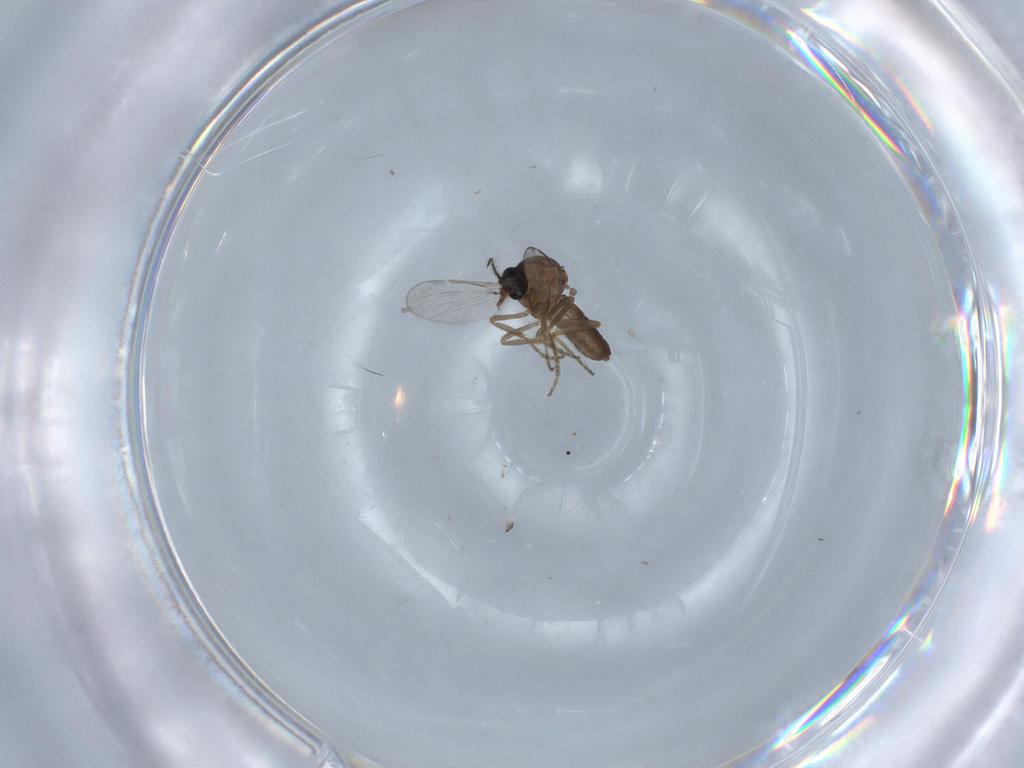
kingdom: Animalia
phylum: Arthropoda
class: Insecta
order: Diptera
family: Ceratopogonidae
